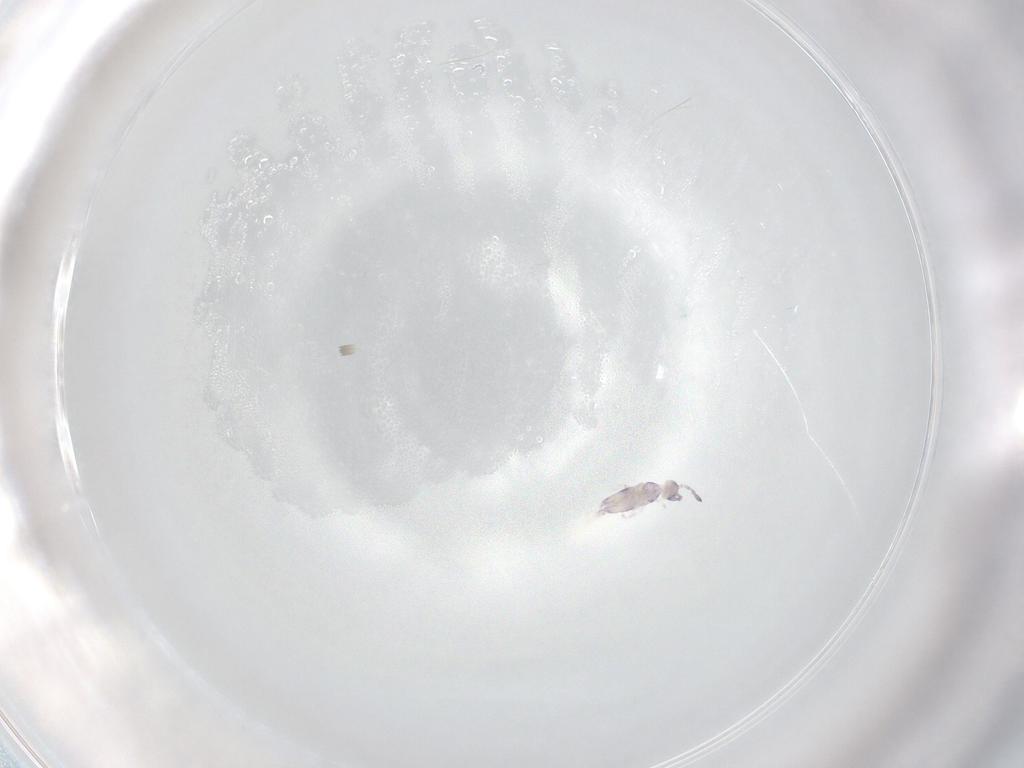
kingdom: Animalia
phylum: Arthropoda
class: Collembola
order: Entomobryomorpha
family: Entomobryidae
